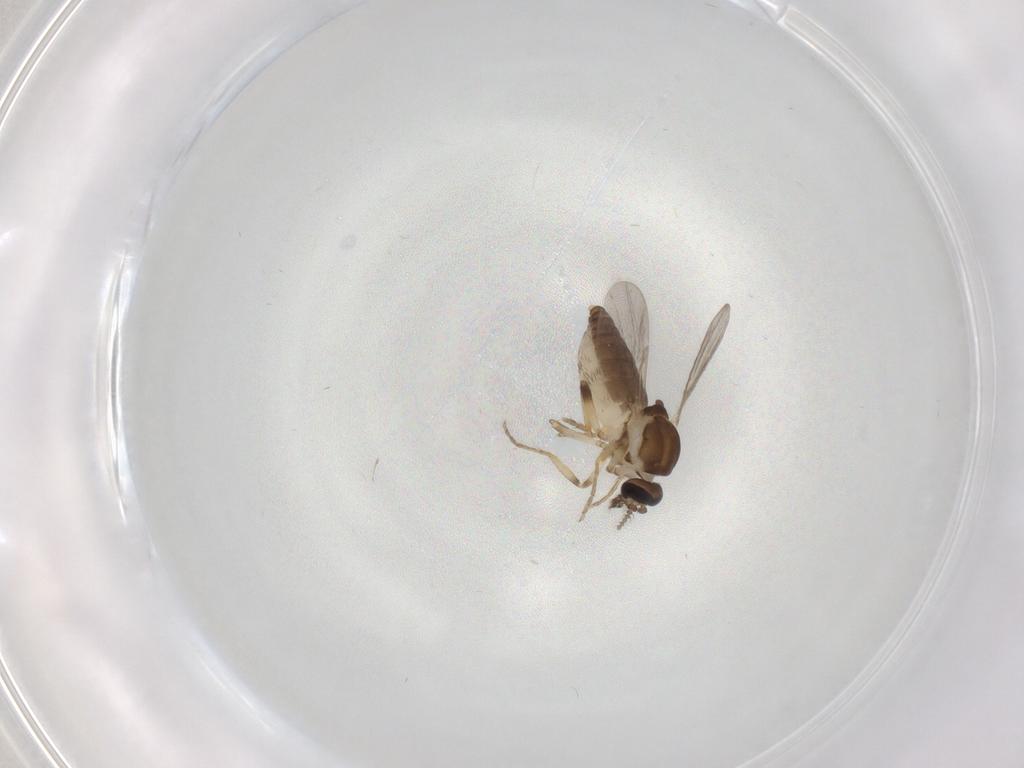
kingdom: Animalia
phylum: Arthropoda
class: Insecta
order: Diptera
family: Ceratopogonidae
